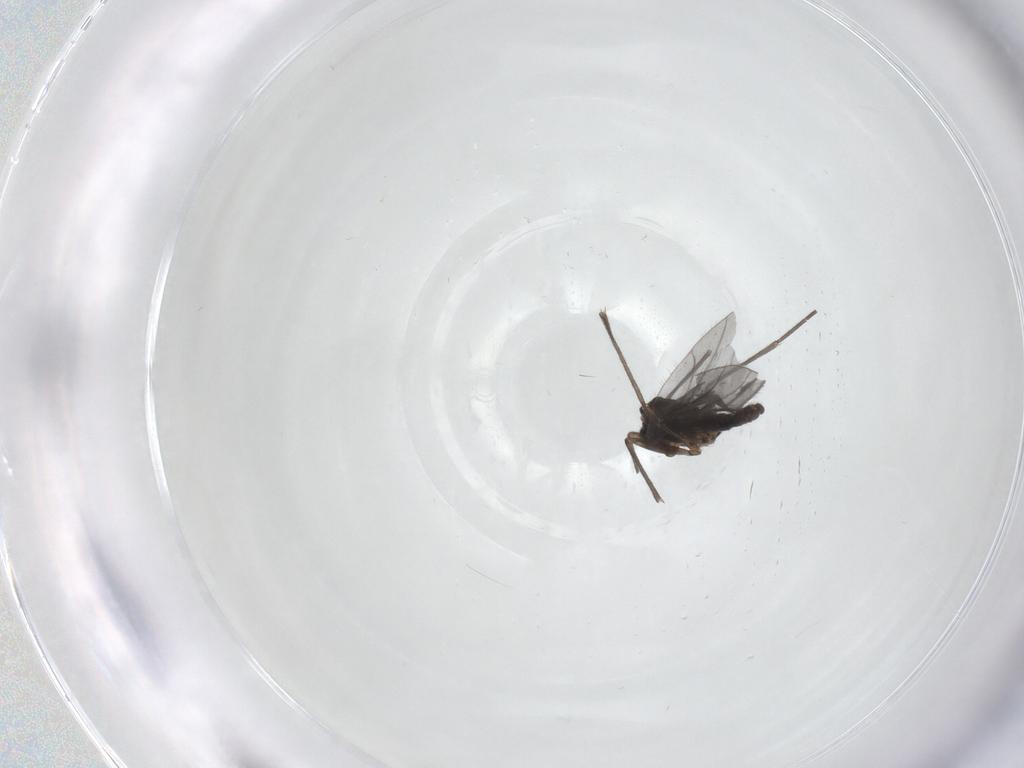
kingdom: Animalia
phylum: Arthropoda
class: Insecta
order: Diptera
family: Sciaridae
